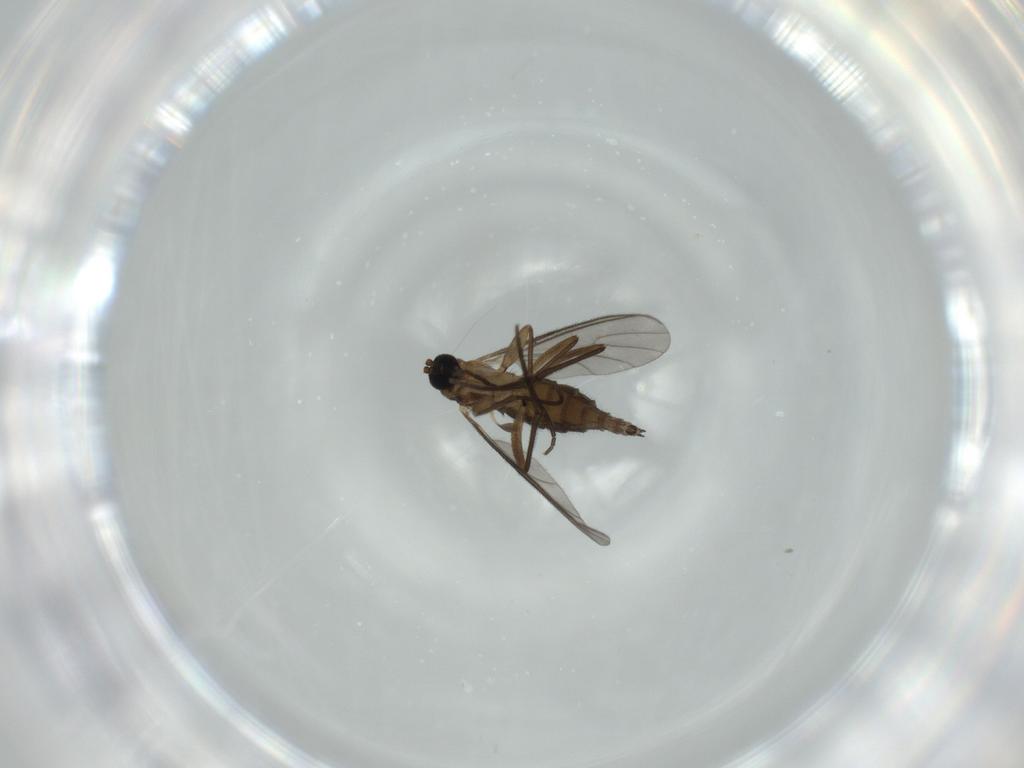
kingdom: Animalia
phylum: Arthropoda
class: Insecta
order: Diptera
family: Sciaridae
